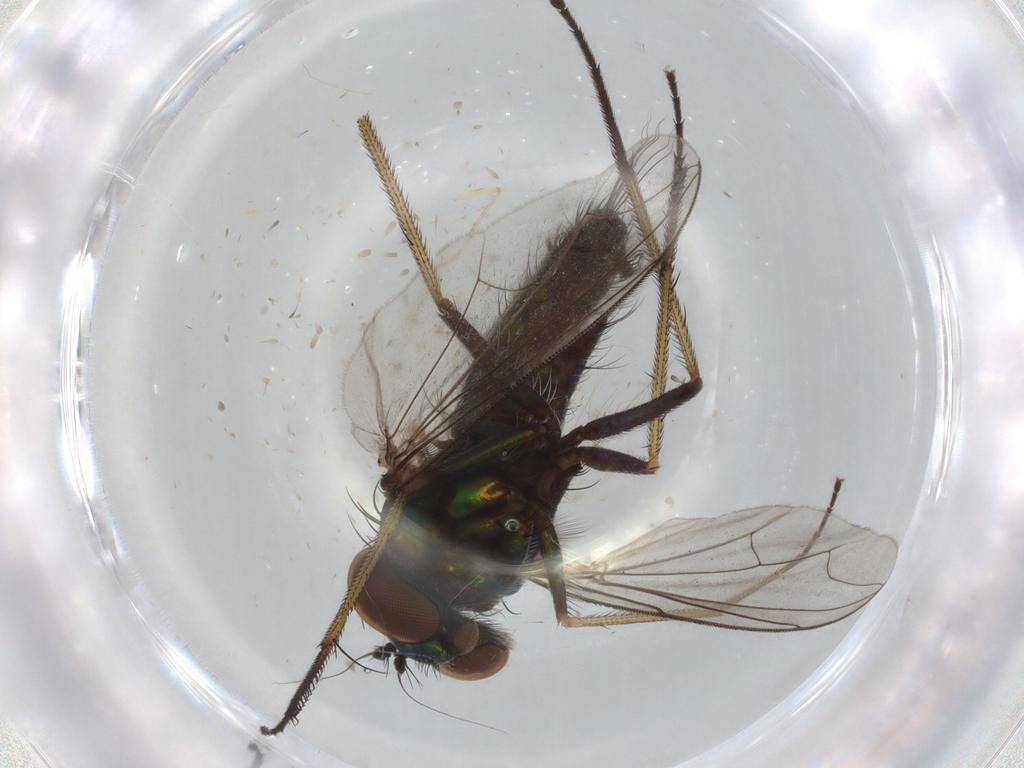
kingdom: Animalia
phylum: Arthropoda
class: Insecta
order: Diptera
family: Dolichopodidae
